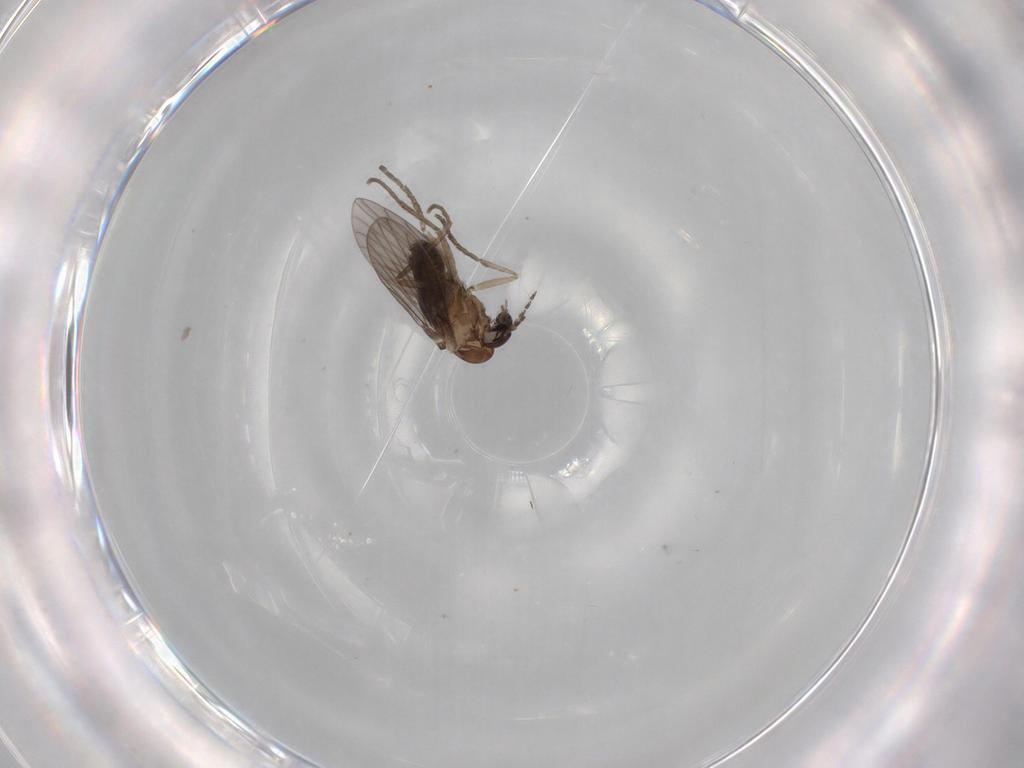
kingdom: Animalia
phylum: Arthropoda
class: Insecta
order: Diptera
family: Psychodidae
